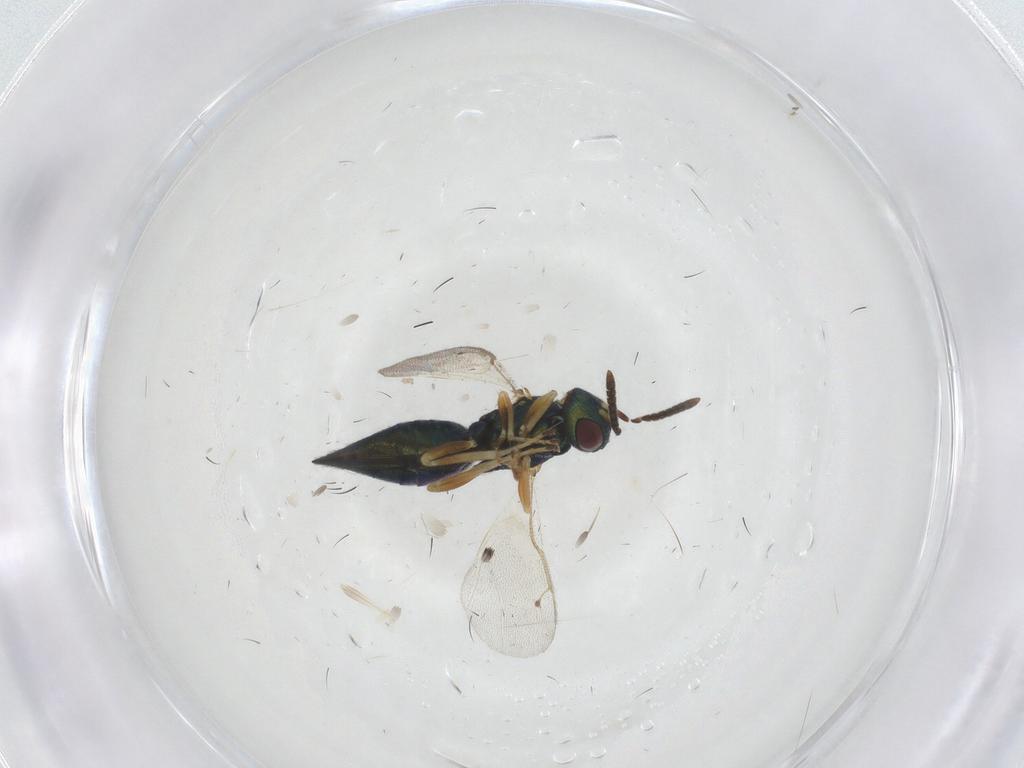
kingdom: Animalia
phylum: Arthropoda
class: Insecta
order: Hymenoptera
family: Pteromalidae
